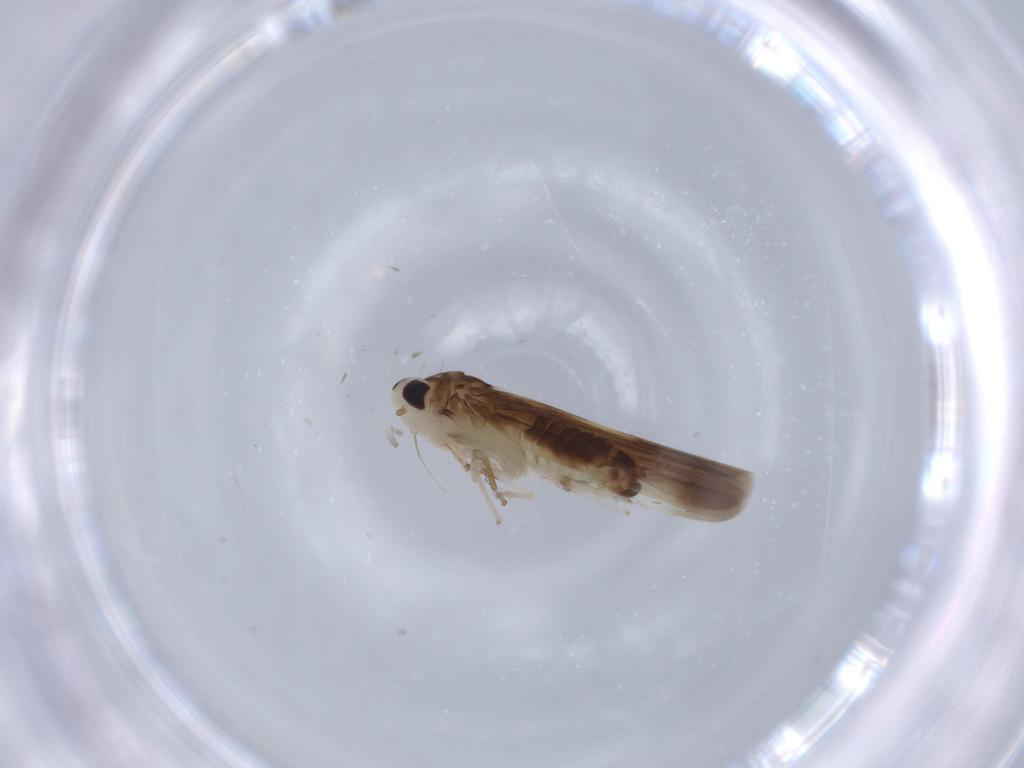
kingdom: Animalia
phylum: Arthropoda
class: Insecta
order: Hemiptera
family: Cicadellidae
